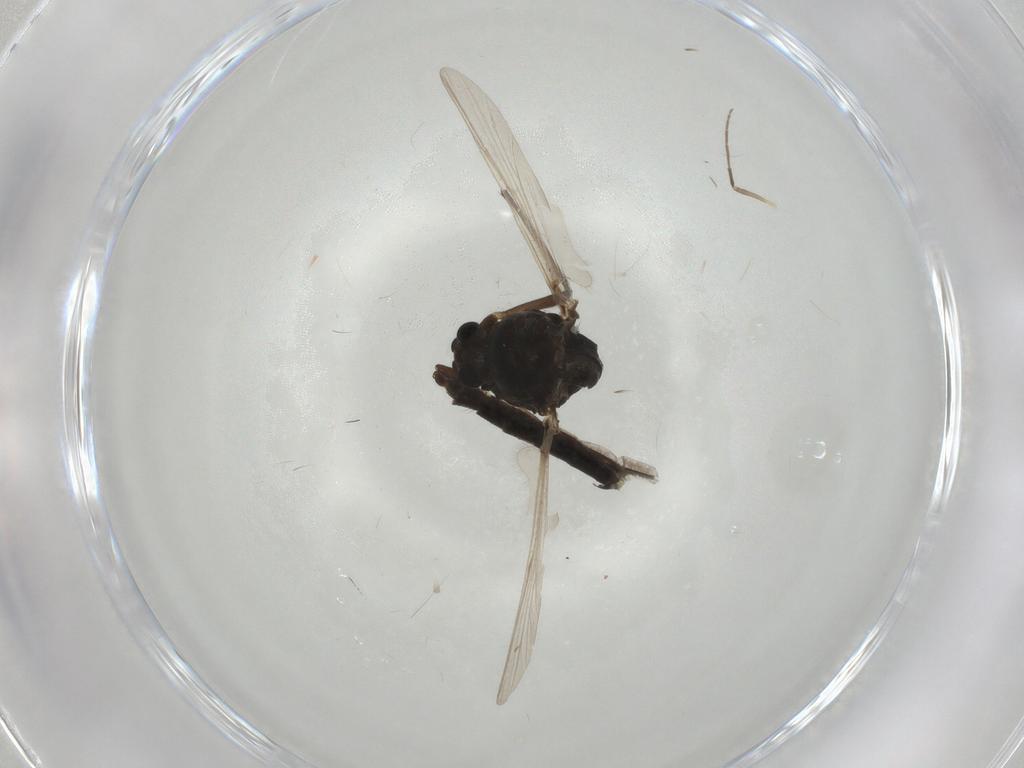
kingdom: Animalia
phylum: Arthropoda
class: Insecta
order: Diptera
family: Chironomidae
